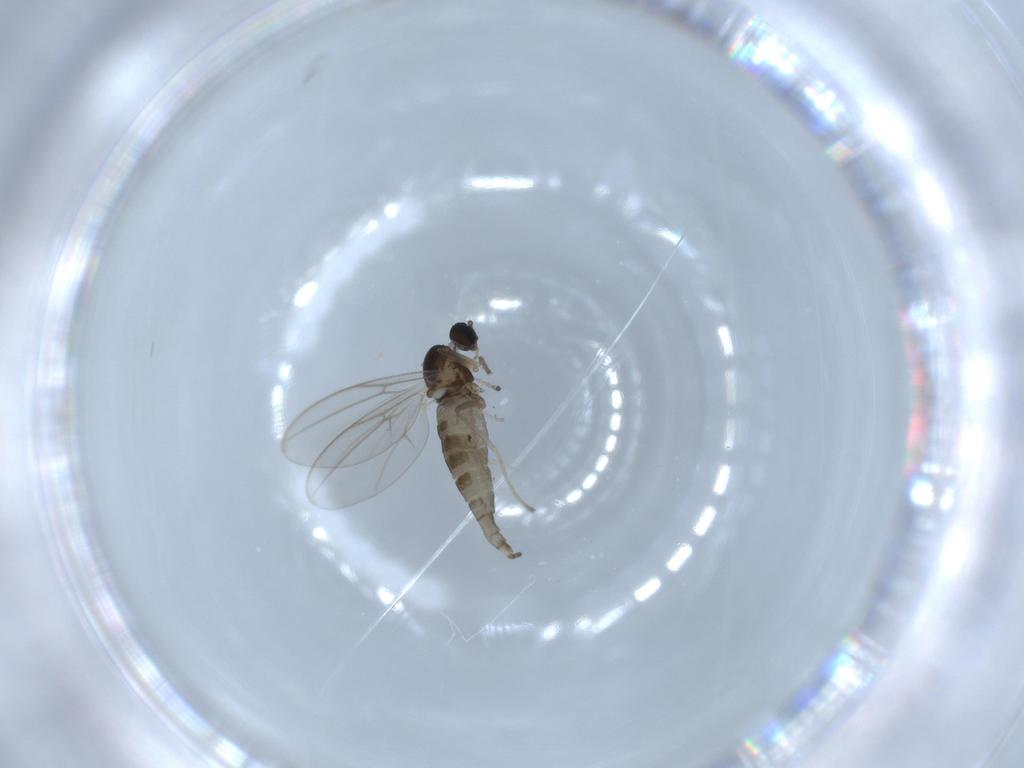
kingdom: Animalia
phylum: Arthropoda
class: Insecta
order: Diptera
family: Cecidomyiidae
